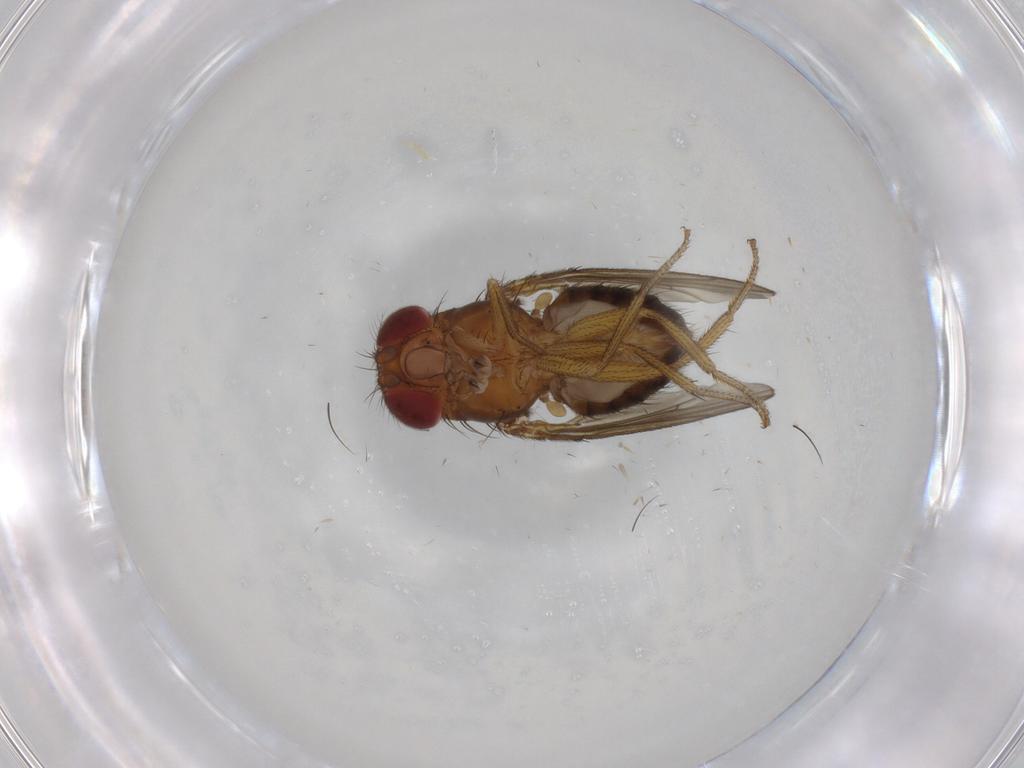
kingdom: Animalia
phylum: Arthropoda
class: Insecta
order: Diptera
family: Drosophilidae
